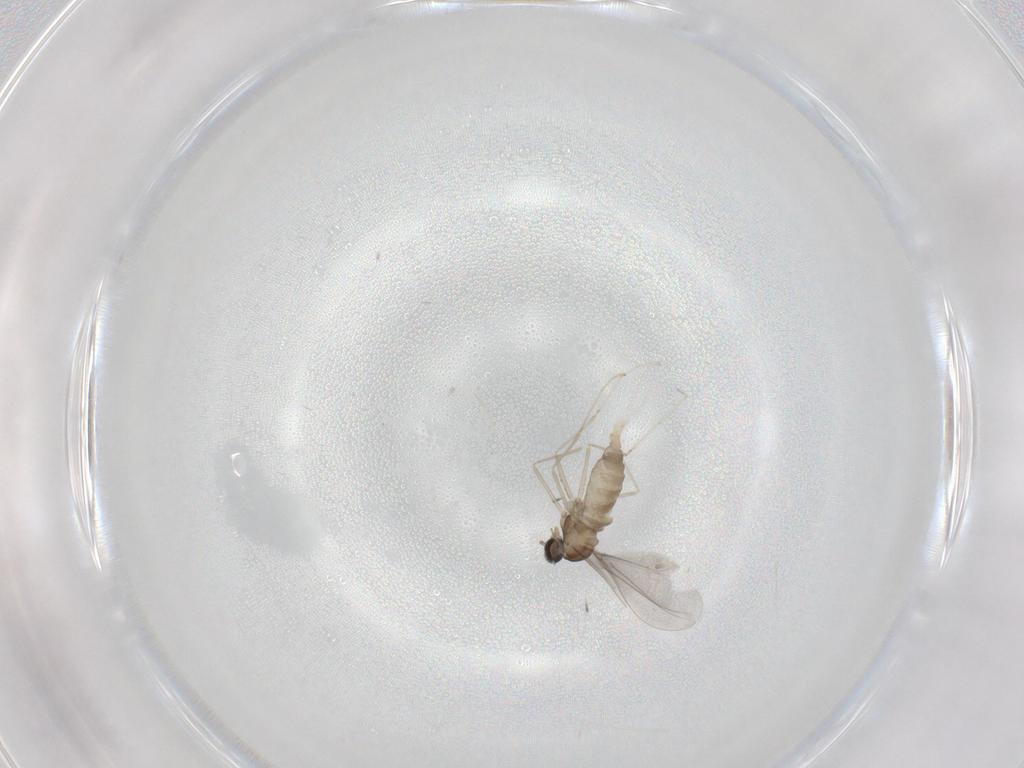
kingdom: Animalia
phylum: Arthropoda
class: Insecta
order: Diptera
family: Cecidomyiidae
